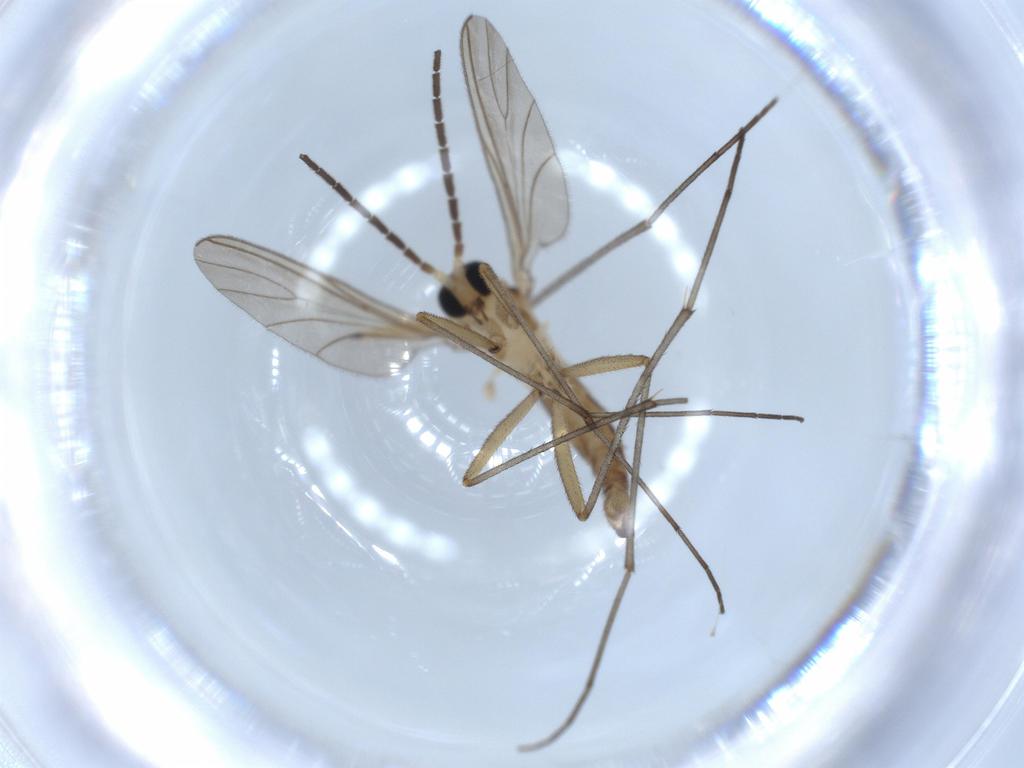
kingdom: Animalia
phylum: Arthropoda
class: Insecta
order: Diptera
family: Sciaridae
